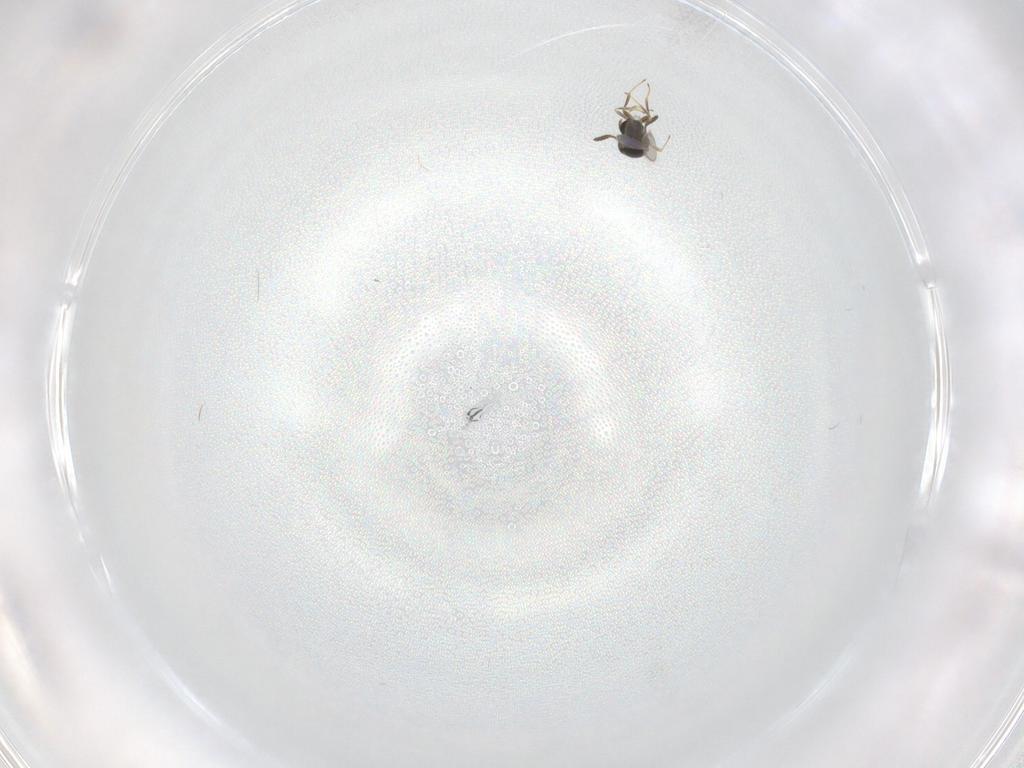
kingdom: Animalia
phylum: Arthropoda
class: Insecta
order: Hymenoptera
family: Scelionidae
